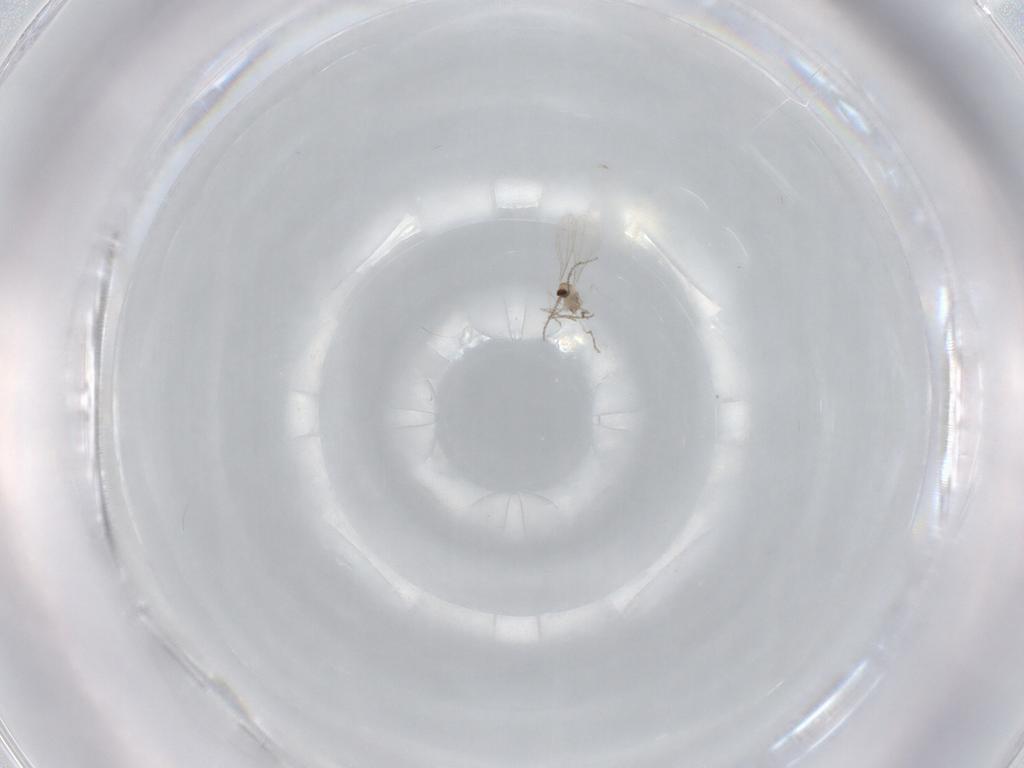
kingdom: Animalia
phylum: Arthropoda
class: Insecta
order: Diptera
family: Cecidomyiidae
